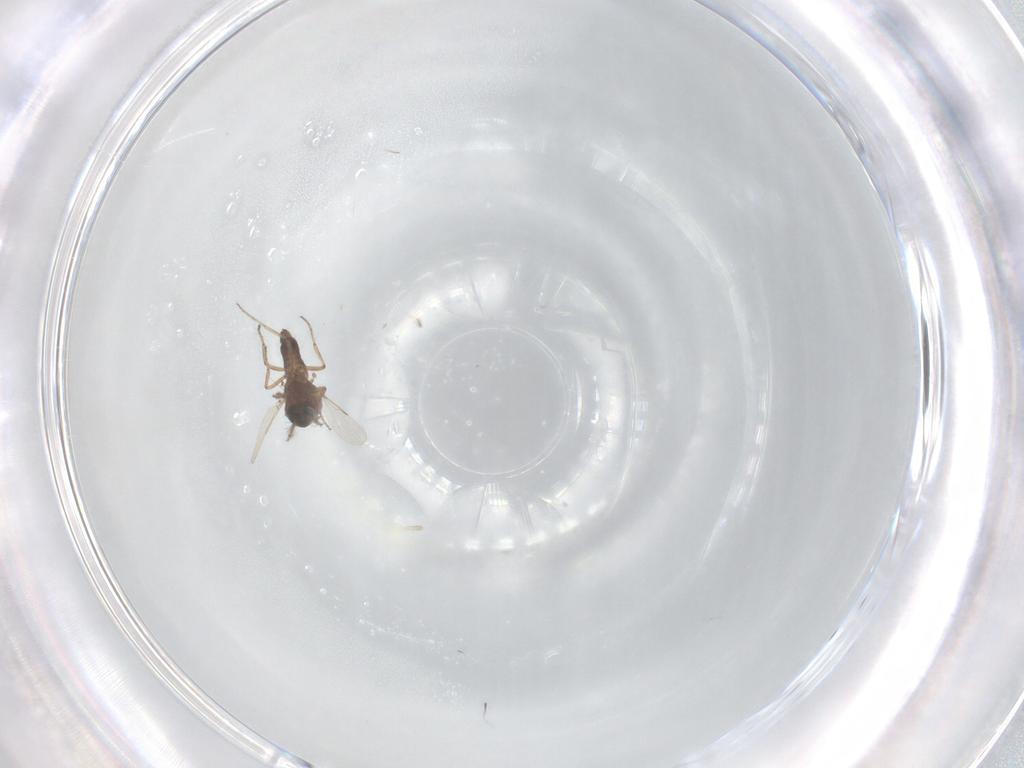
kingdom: Animalia
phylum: Arthropoda
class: Insecta
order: Diptera
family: Ceratopogonidae
